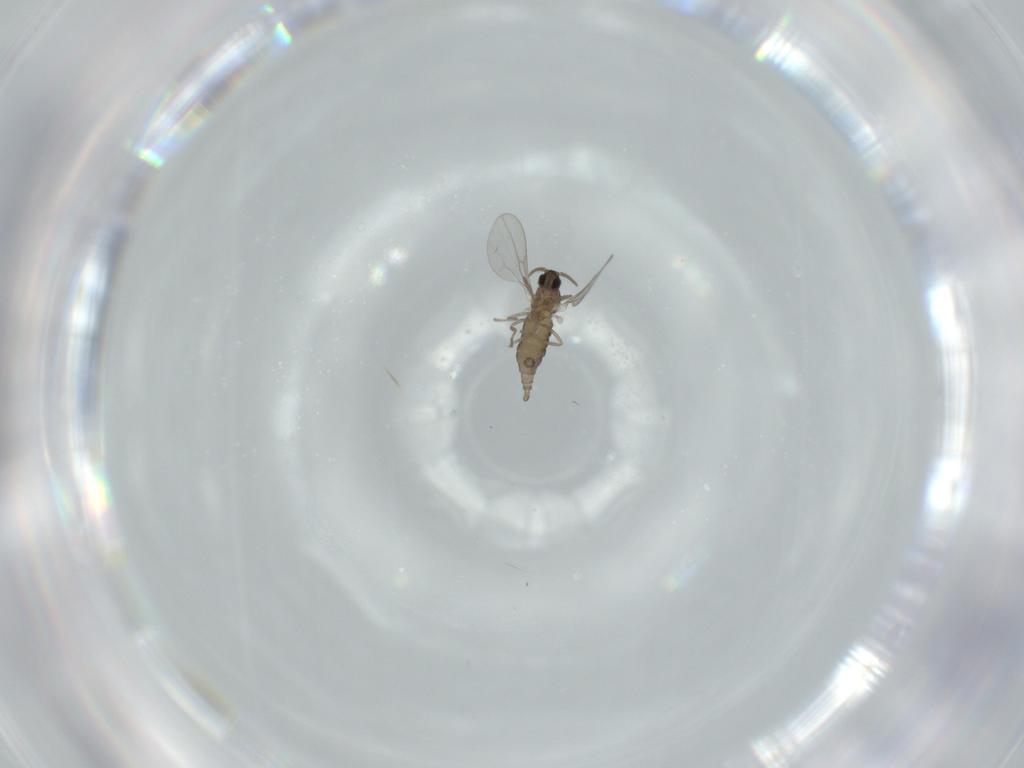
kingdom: Animalia
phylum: Arthropoda
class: Insecta
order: Diptera
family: Cecidomyiidae
